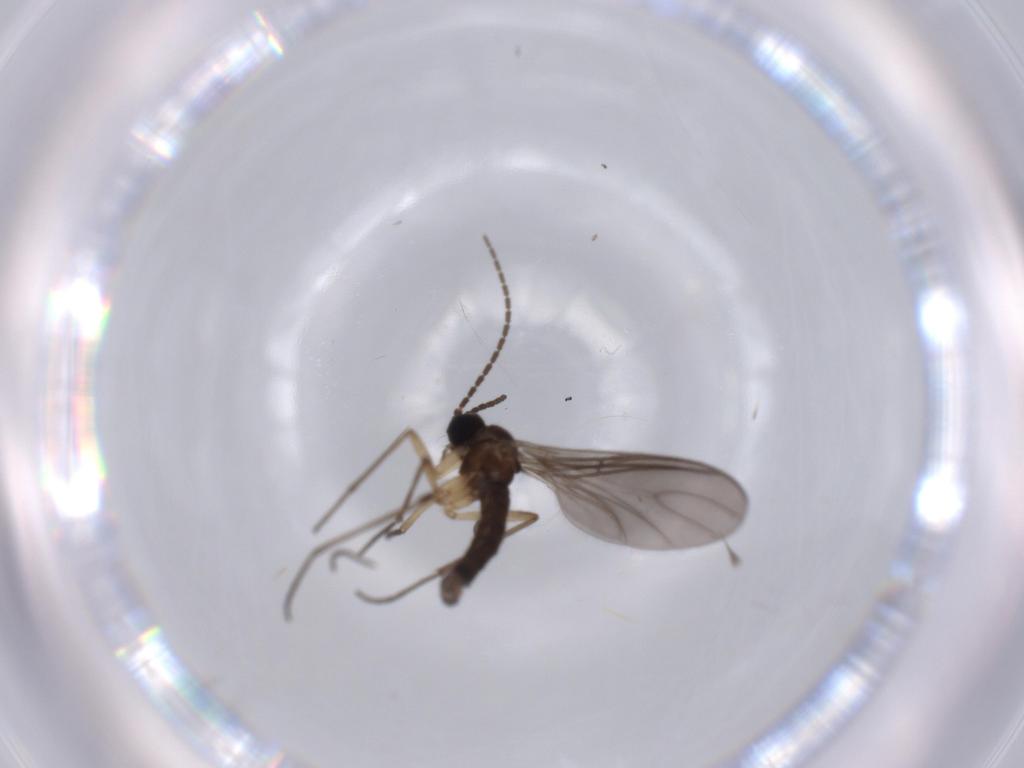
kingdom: Animalia
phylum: Arthropoda
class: Insecta
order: Diptera
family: Sciaridae
